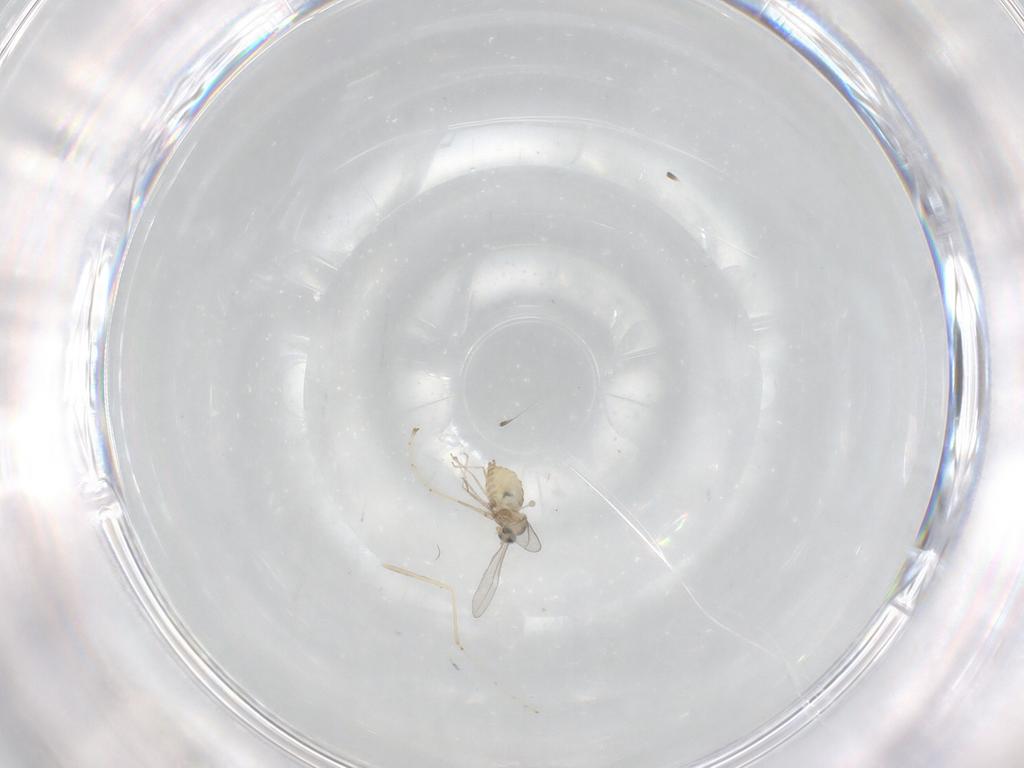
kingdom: Animalia
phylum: Arthropoda
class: Insecta
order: Diptera
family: Cecidomyiidae
